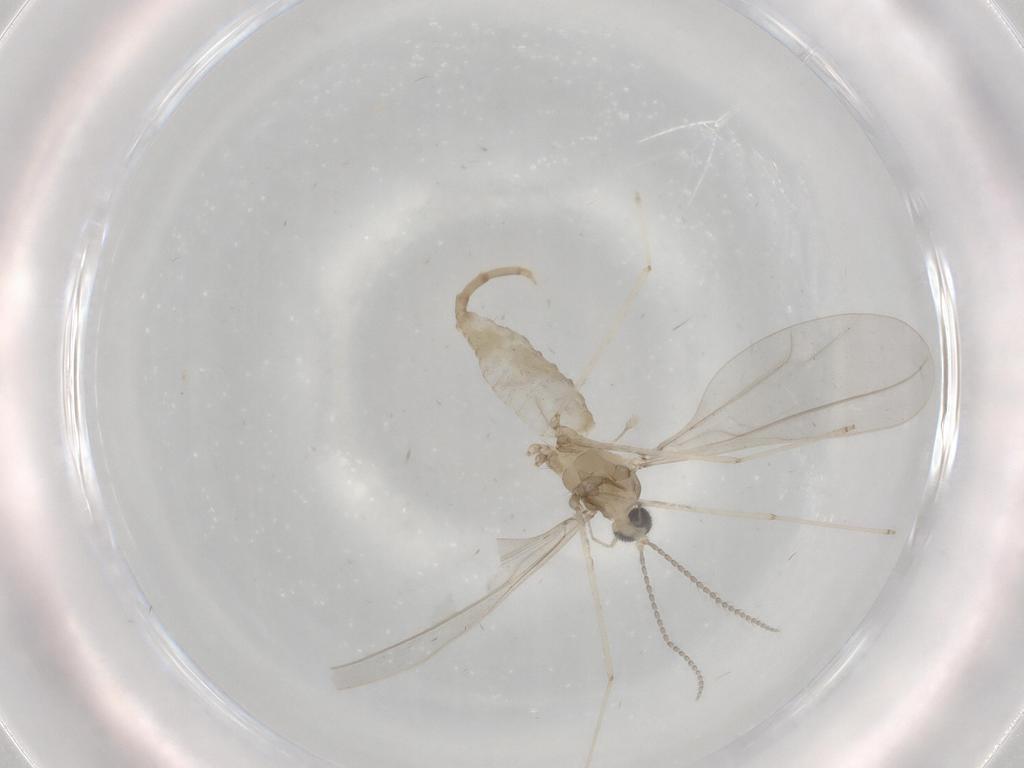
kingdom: Animalia
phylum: Arthropoda
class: Insecta
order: Diptera
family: Cecidomyiidae
